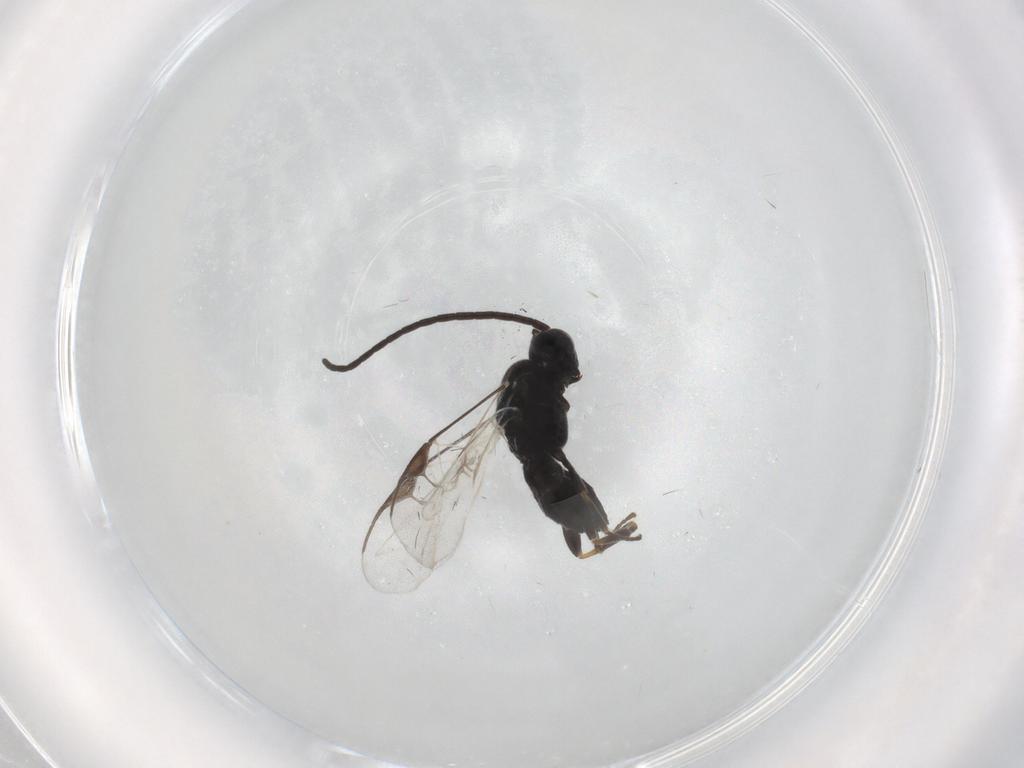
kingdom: Animalia
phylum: Arthropoda
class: Insecta
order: Hymenoptera
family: Braconidae
